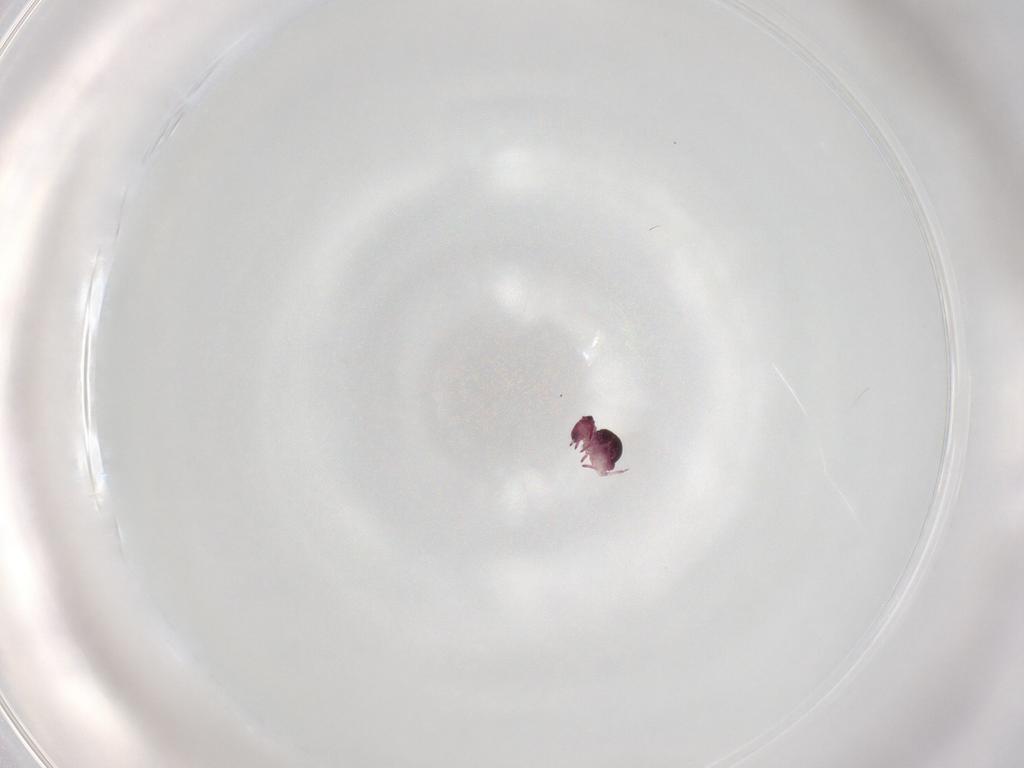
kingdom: Animalia
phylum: Arthropoda
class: Collembola
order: Symphypleona
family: Sminthurididae
